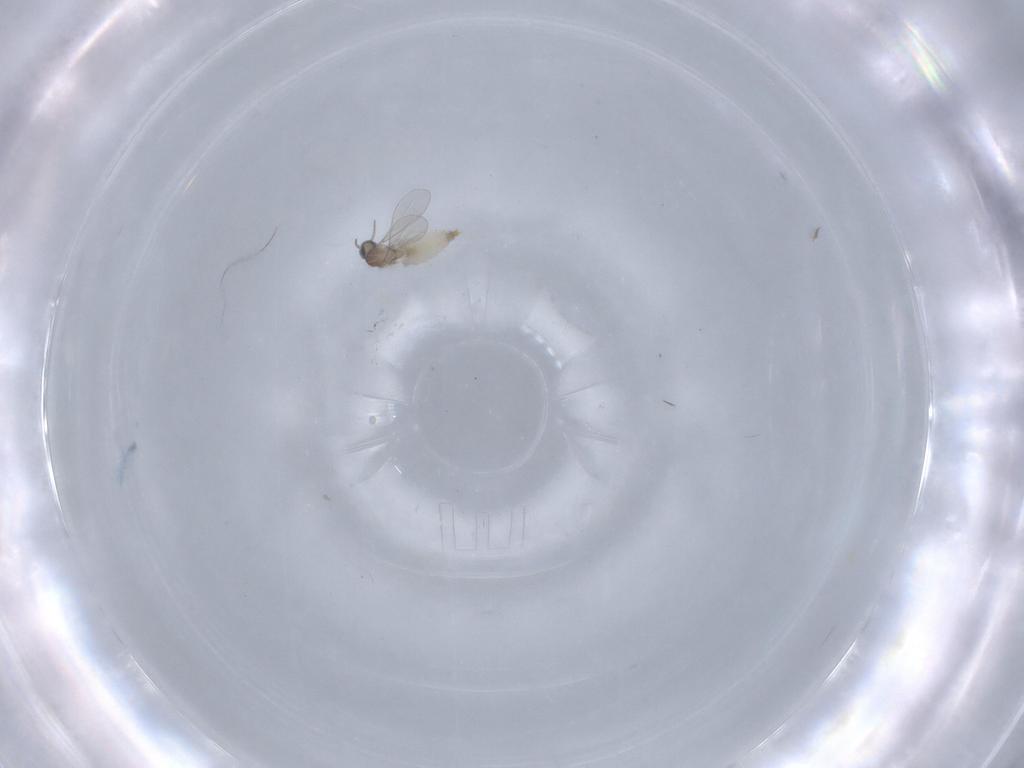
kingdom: Animalia
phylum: Arthropoda
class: Insecta
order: Diptera
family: Ceratopogonidae
